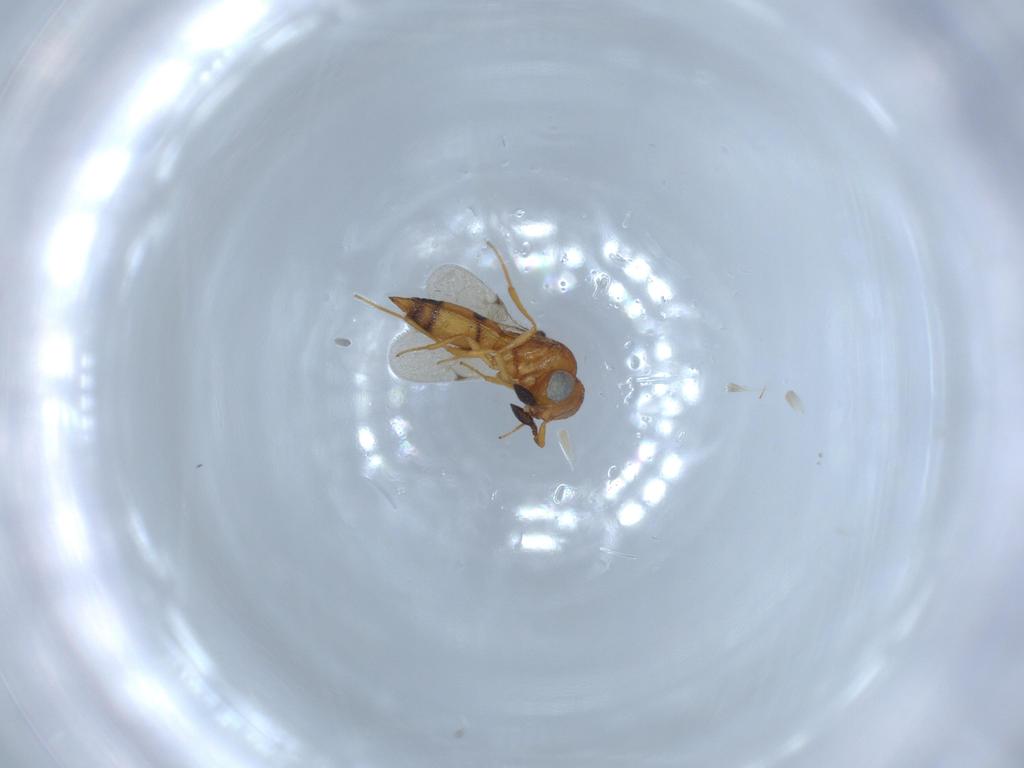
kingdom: Animalia
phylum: Arthropoda
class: Insecta
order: Hymenoptera
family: Scelionidae
